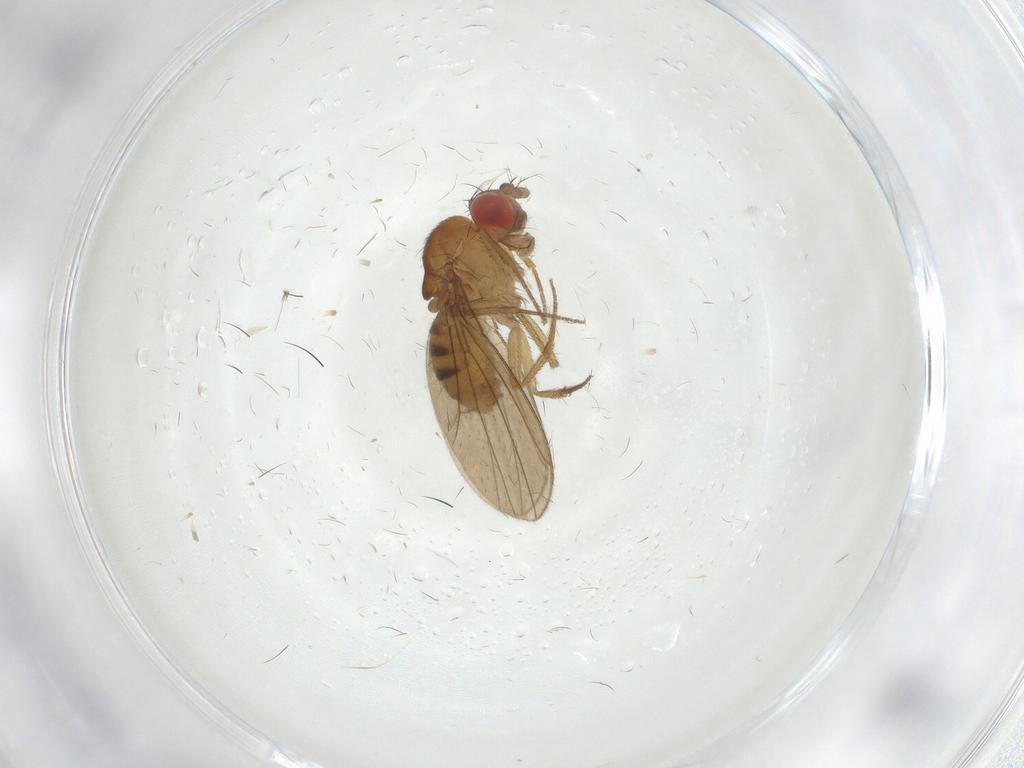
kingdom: Animalia
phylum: Arthropoda
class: Insecta
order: Diptera
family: Drosophilidae
